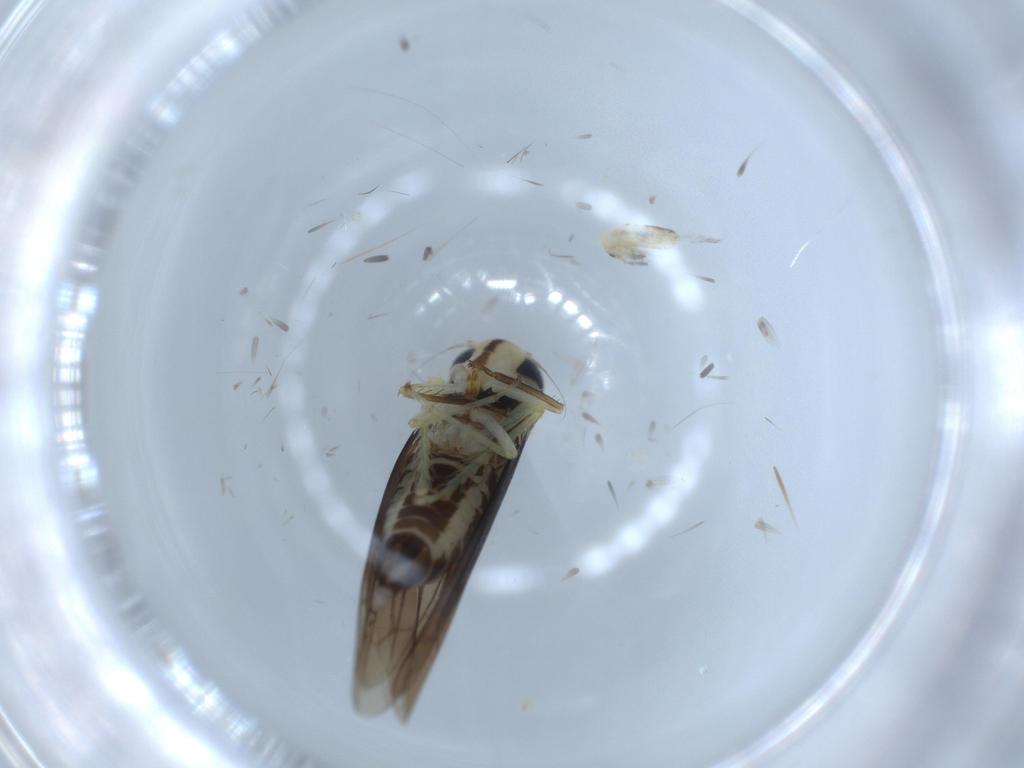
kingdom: Animalia
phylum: Arthropoda
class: Insecta
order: Hemiptera
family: Cicadellidae
